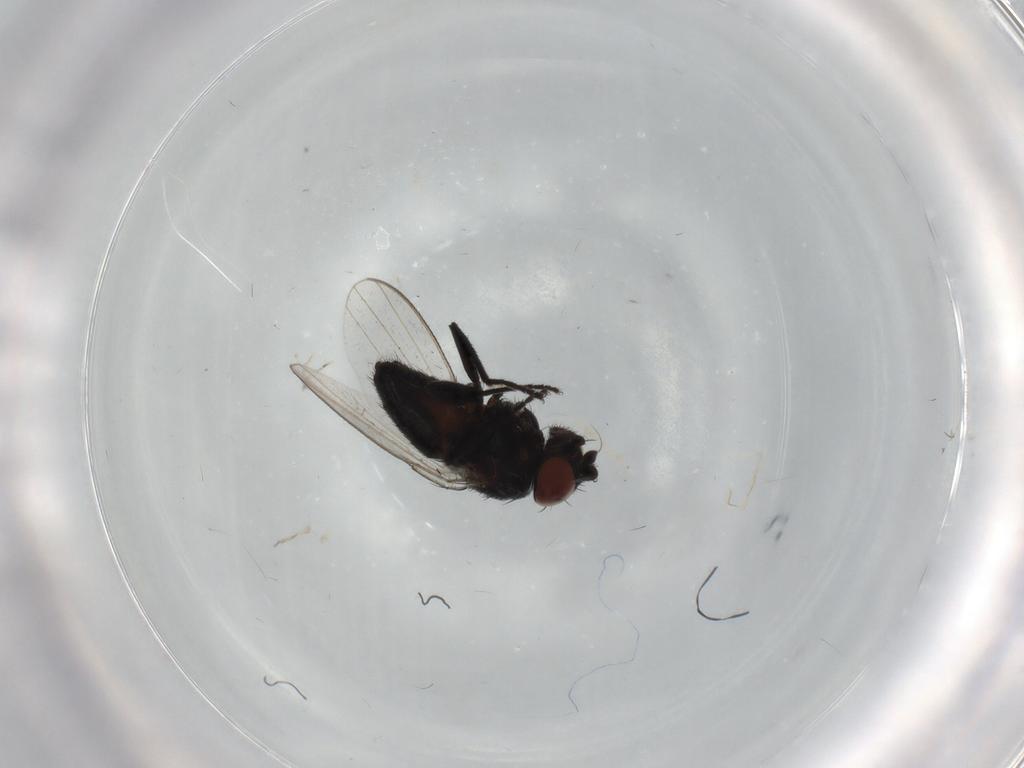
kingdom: Animalia
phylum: Arthropoda
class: Insecta
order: Diptera
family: Milichiidae
